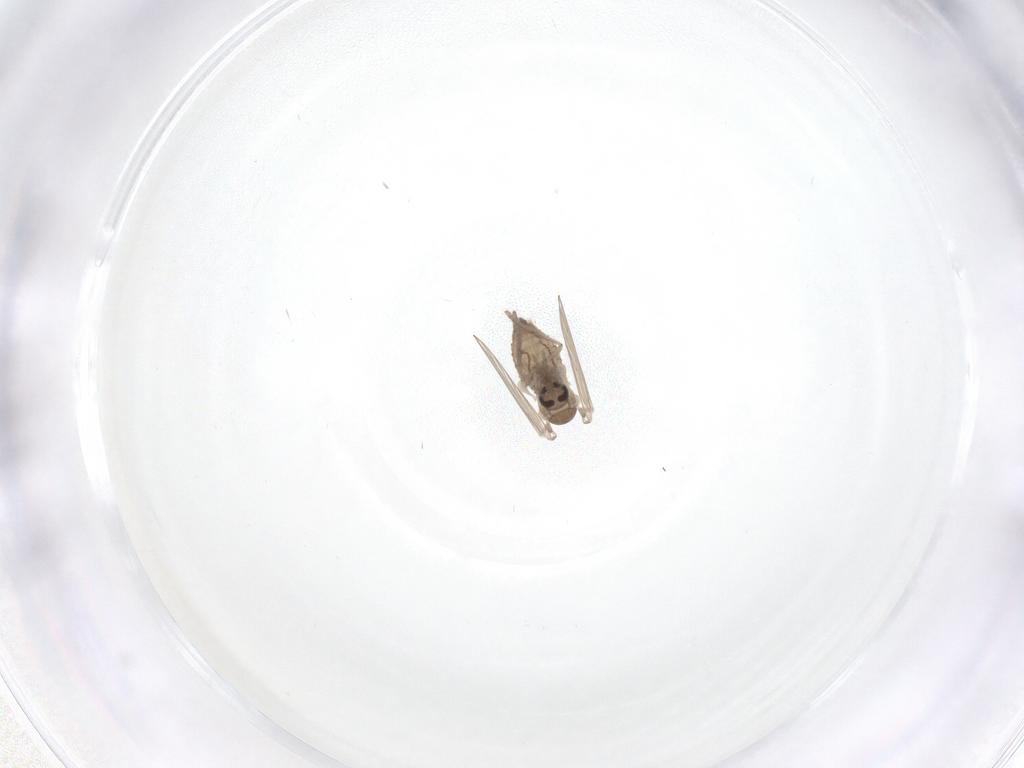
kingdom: Animalia
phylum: Arthropoda
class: Insecta
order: Diptera
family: Psychodidae
